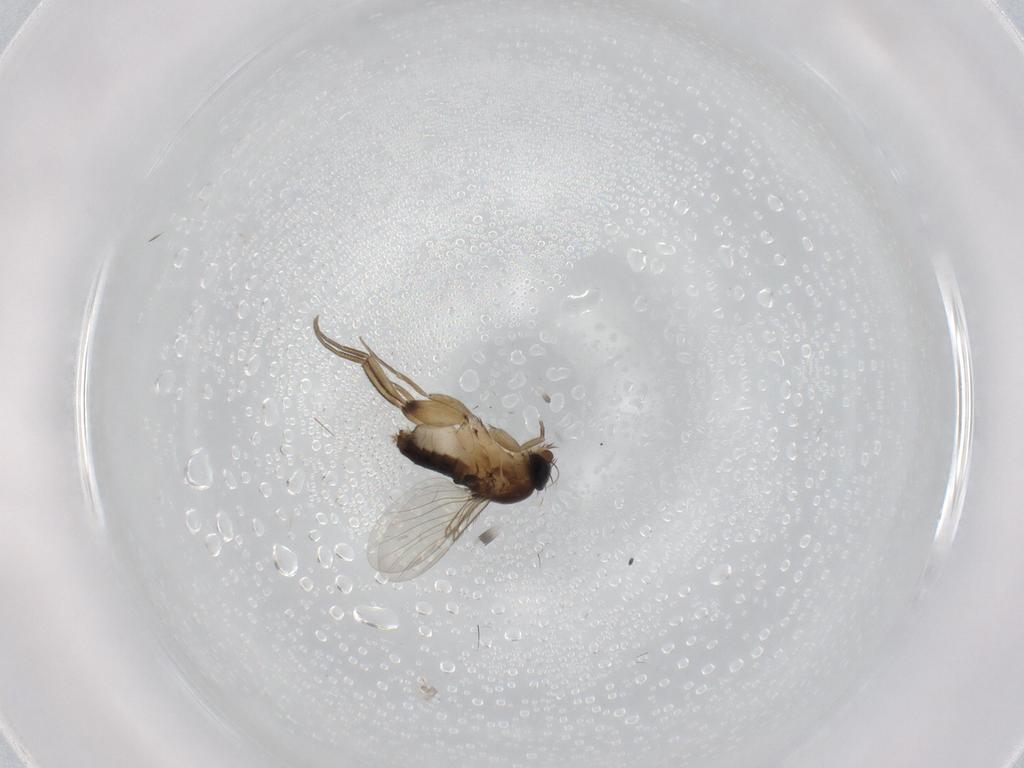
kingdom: Animalia
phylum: Arthropoda
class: Insecta
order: Diptera
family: Phoridae
